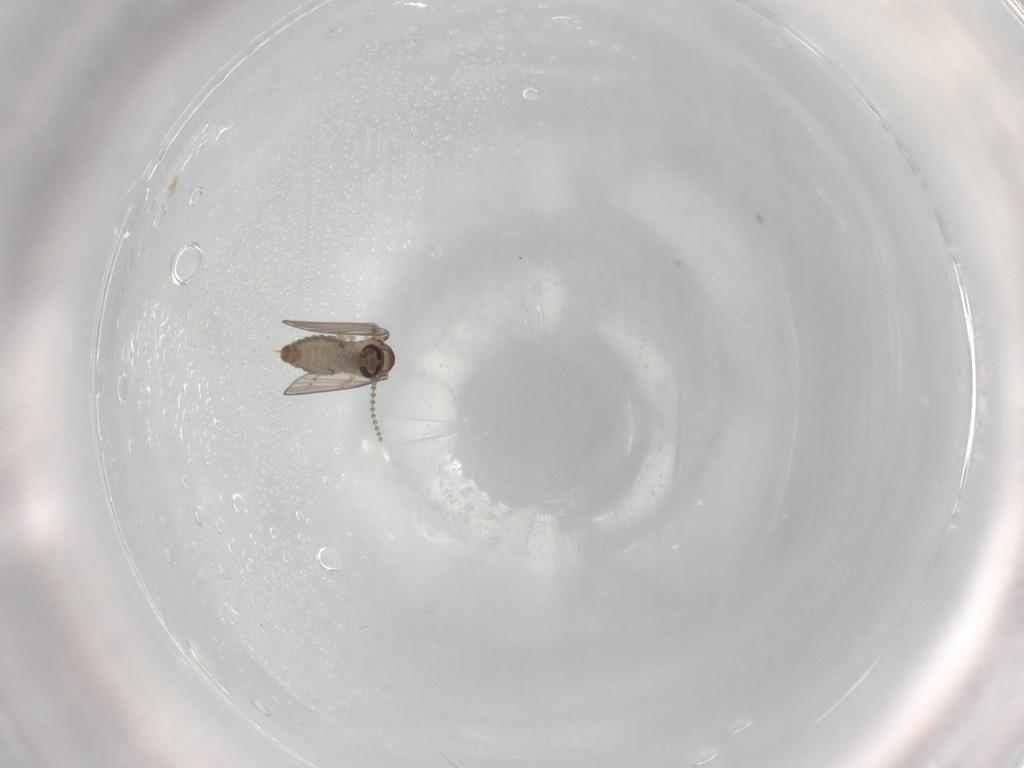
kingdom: Animalia
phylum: Arthropoda
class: Insecta
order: Diptera
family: Psychodidae
